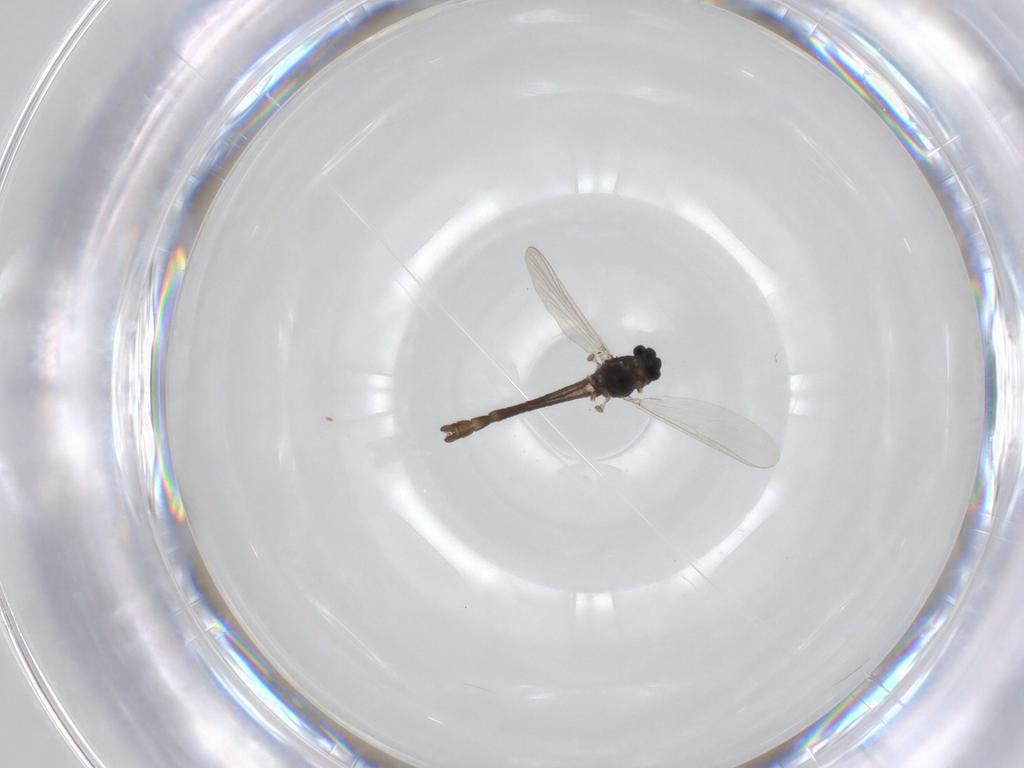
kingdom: Animalia
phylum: Arthropoda
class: Insecta
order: Diptera
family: Chironomidae
